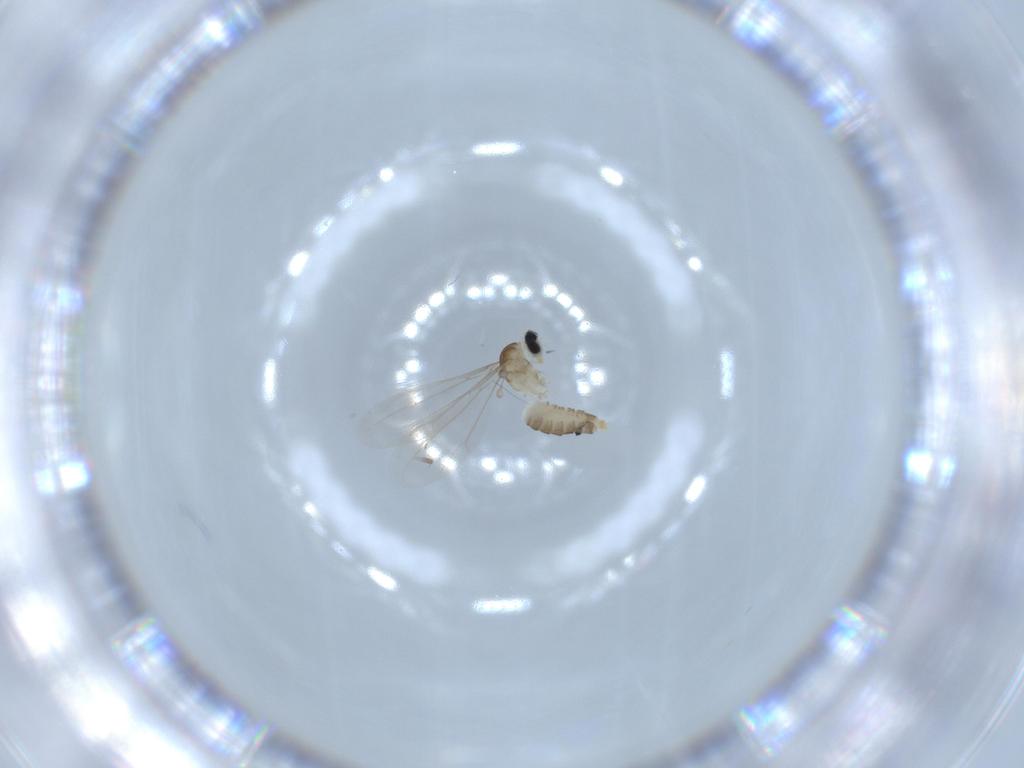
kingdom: Animalia
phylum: Arthropoda
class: Insecta
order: Diptera
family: Cecidomyiidae
